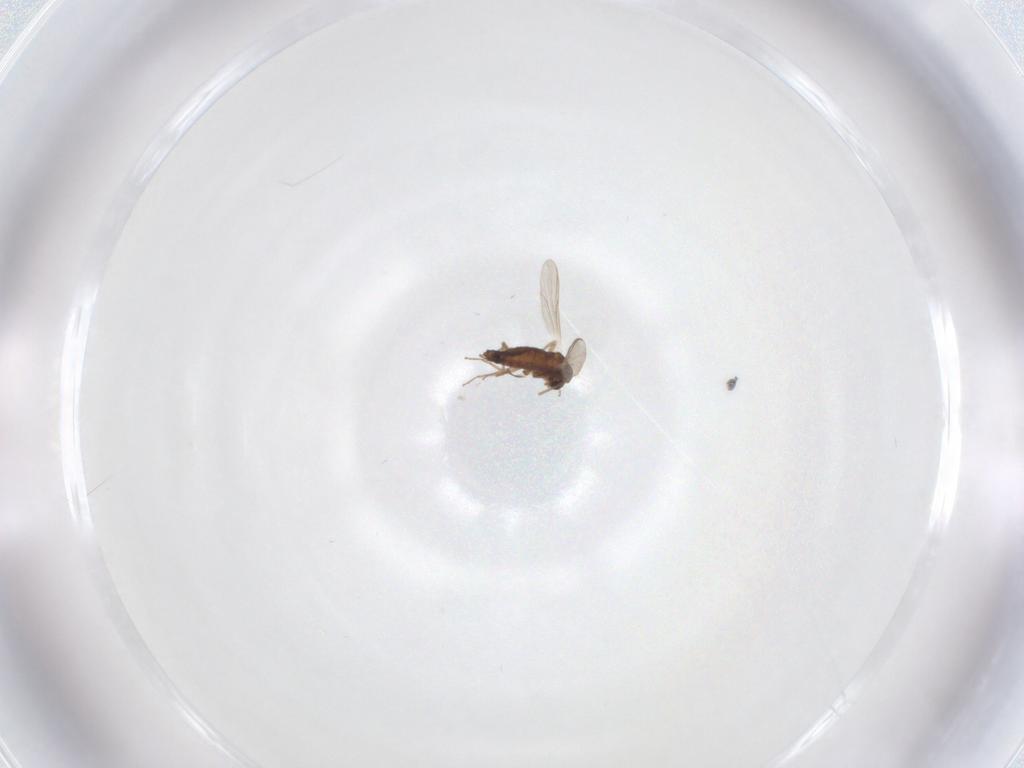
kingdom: Animalia
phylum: Arthropoda
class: Insecta
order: Diptera
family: Chironomidae
